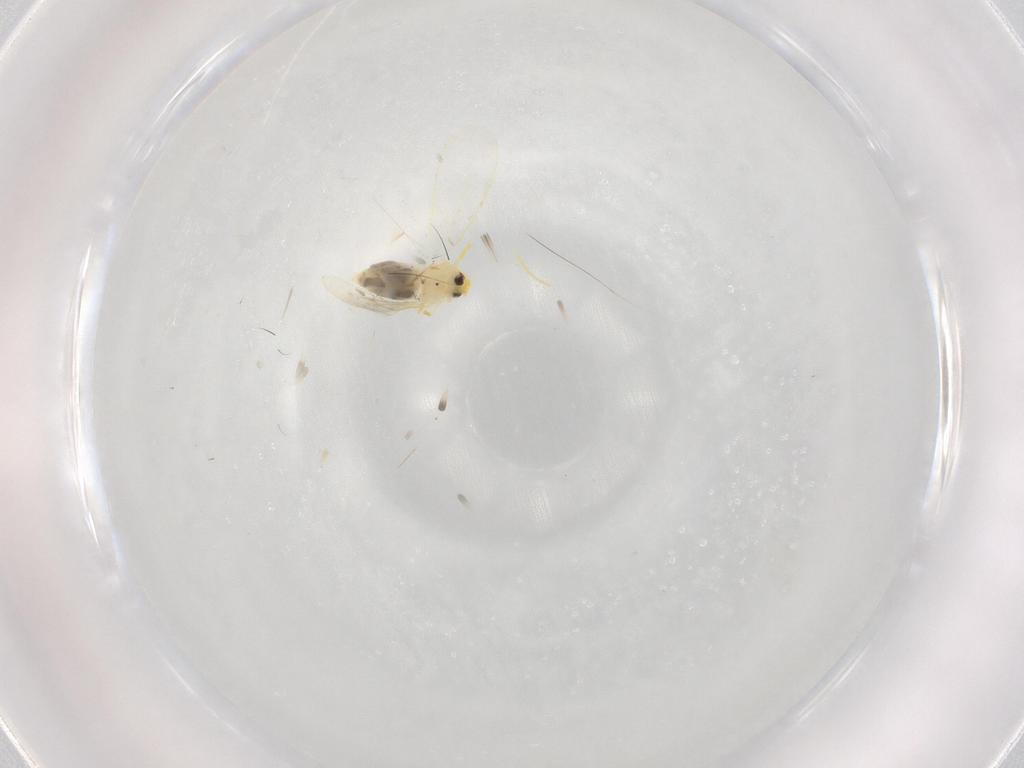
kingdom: Animalia
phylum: Arthropoda
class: Insecta
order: Hemiptera
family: Aleyrodidae
